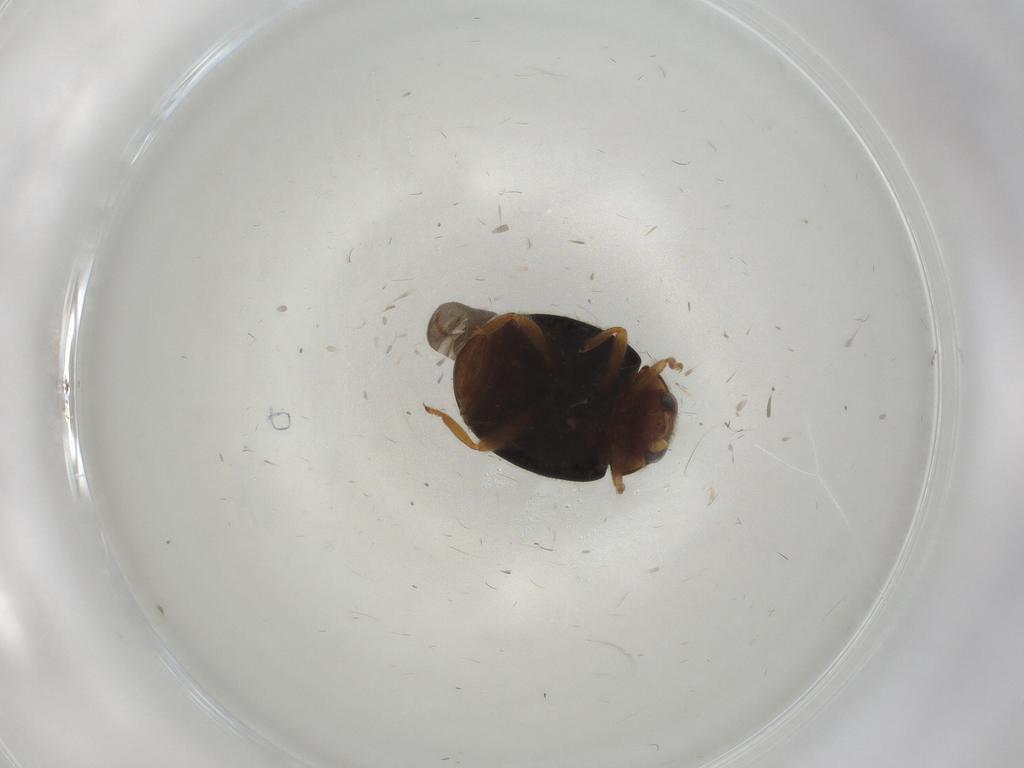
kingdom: Animalia
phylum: Arthropoda
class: Insecta
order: Coleoptera
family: Coccinellidae
